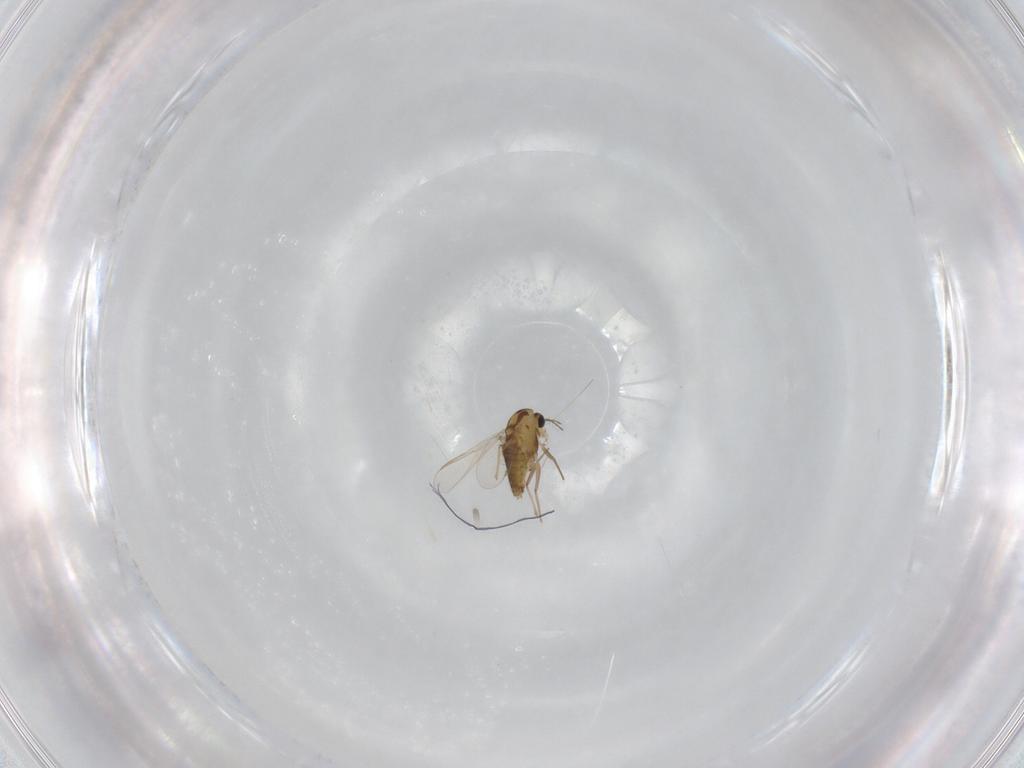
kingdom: Animalia
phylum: Arthropoda
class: Insecta
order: Diptera
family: Chironomidae
